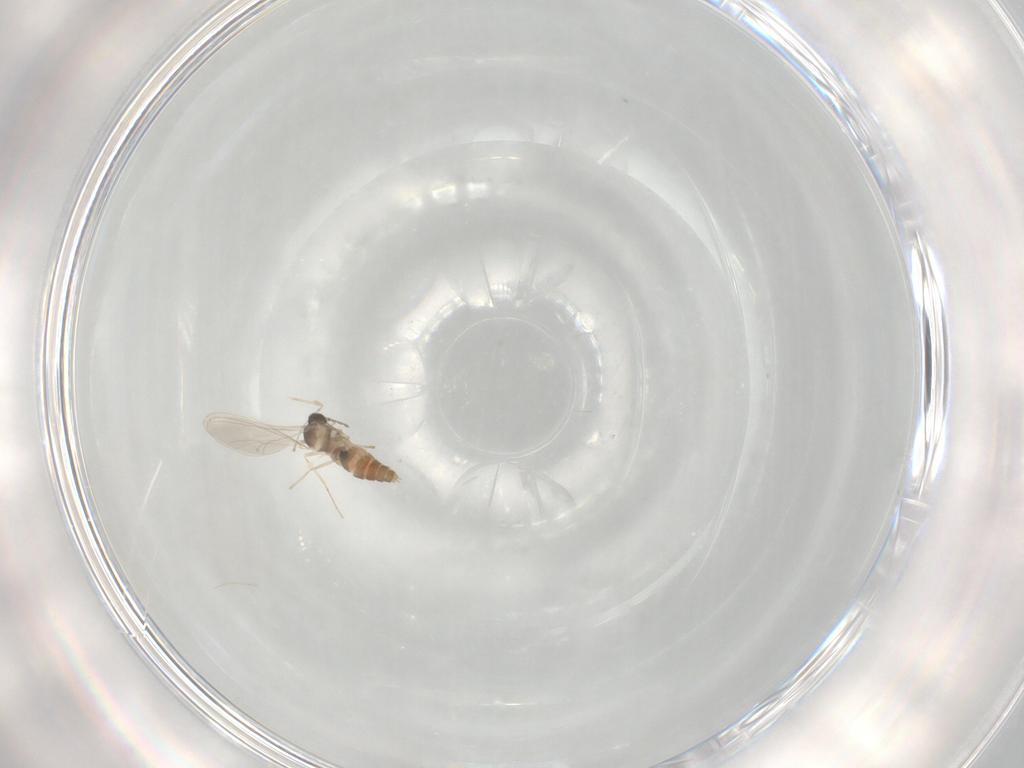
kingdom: Animalia
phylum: Arthropoda
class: Insecta
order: Diptera
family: Cecidomyiidae
